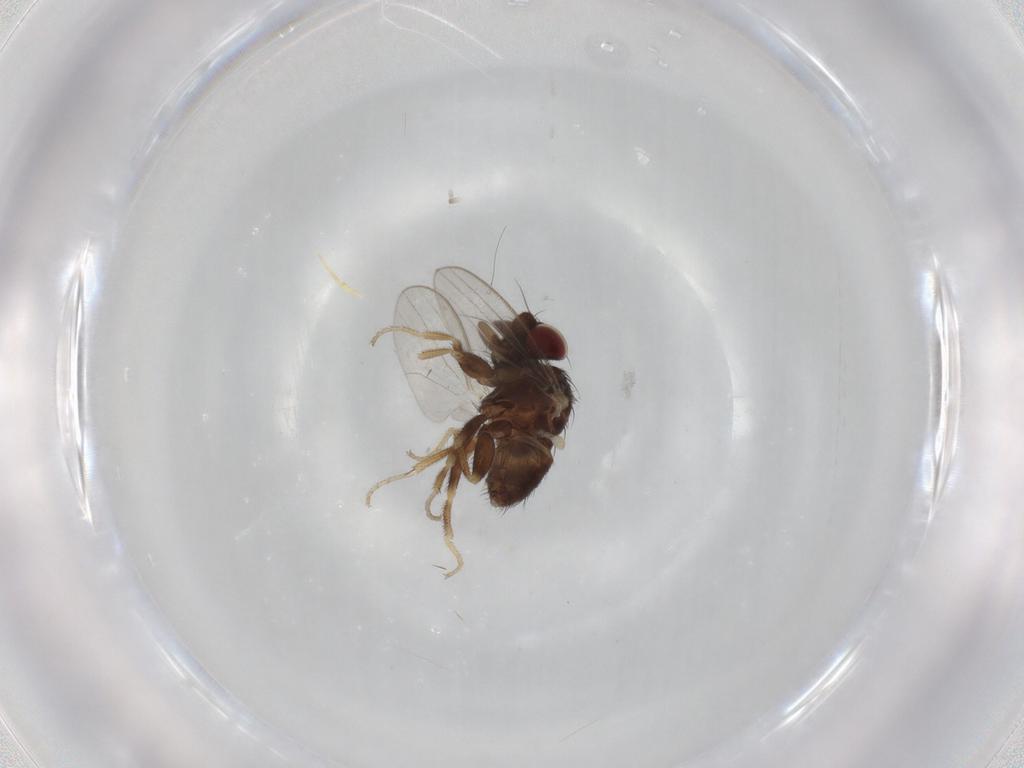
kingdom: Animalia
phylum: Arthropoda
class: Insecta
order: Diptera
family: Milichiidae
